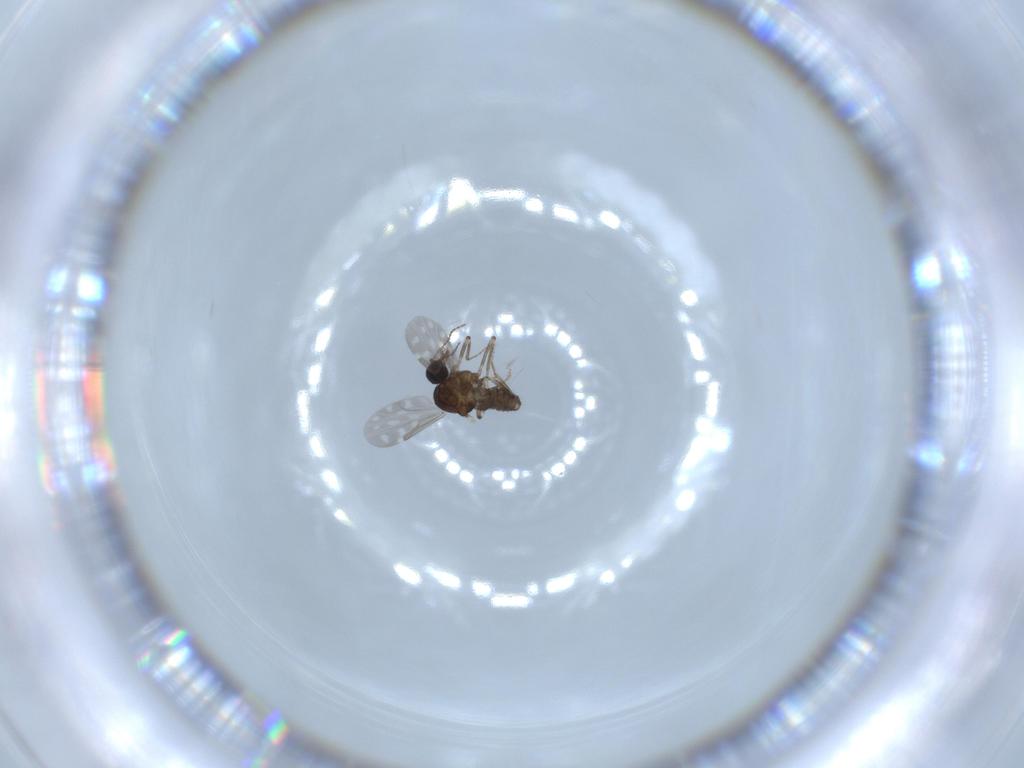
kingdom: Animalia
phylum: Arthropoda
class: Insecta
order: Diptera
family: Ceratopogonidae
